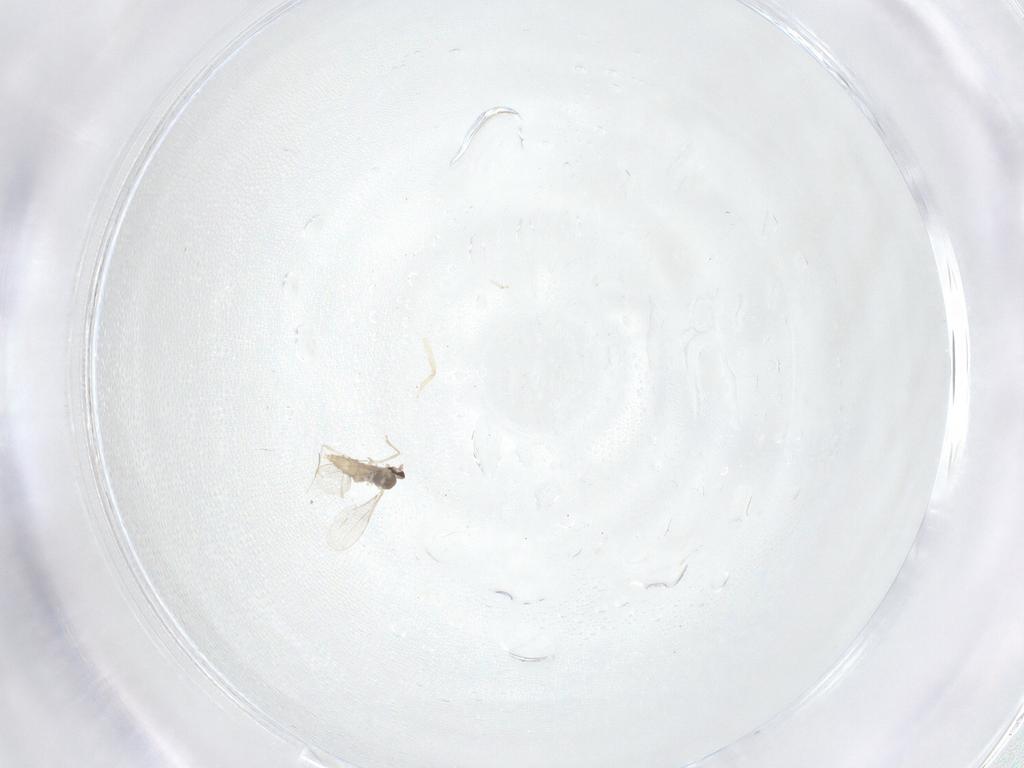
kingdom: Animalia
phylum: Arthropoda
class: Insecta
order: Diptera
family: Cecidomyiidae
